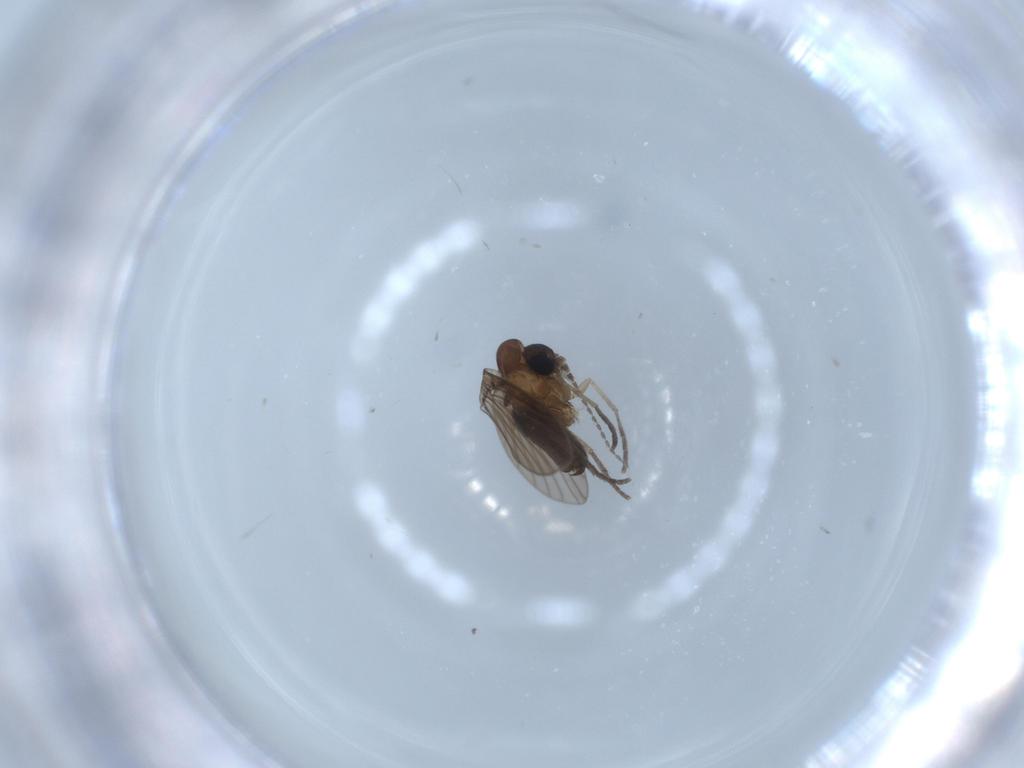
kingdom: Animalia
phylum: Arthropoda
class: Insecta
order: Diptera
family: Psychodidae
